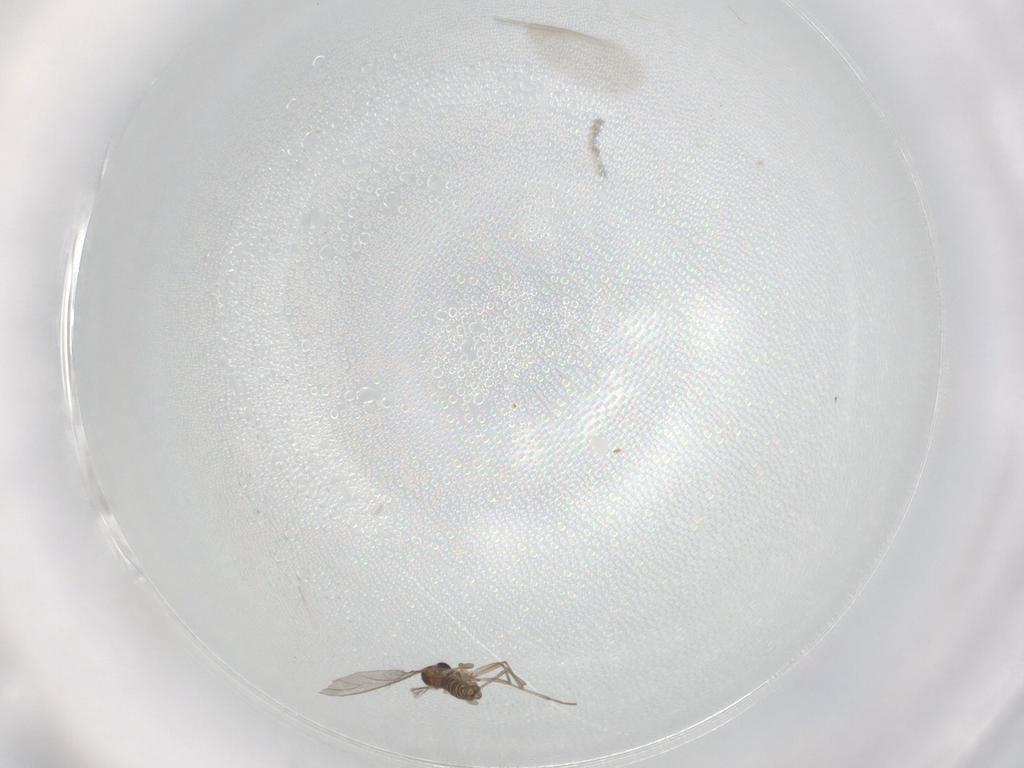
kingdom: Animalia
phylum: Arthropoda
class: Insecta
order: Diptera
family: Sciaridae
